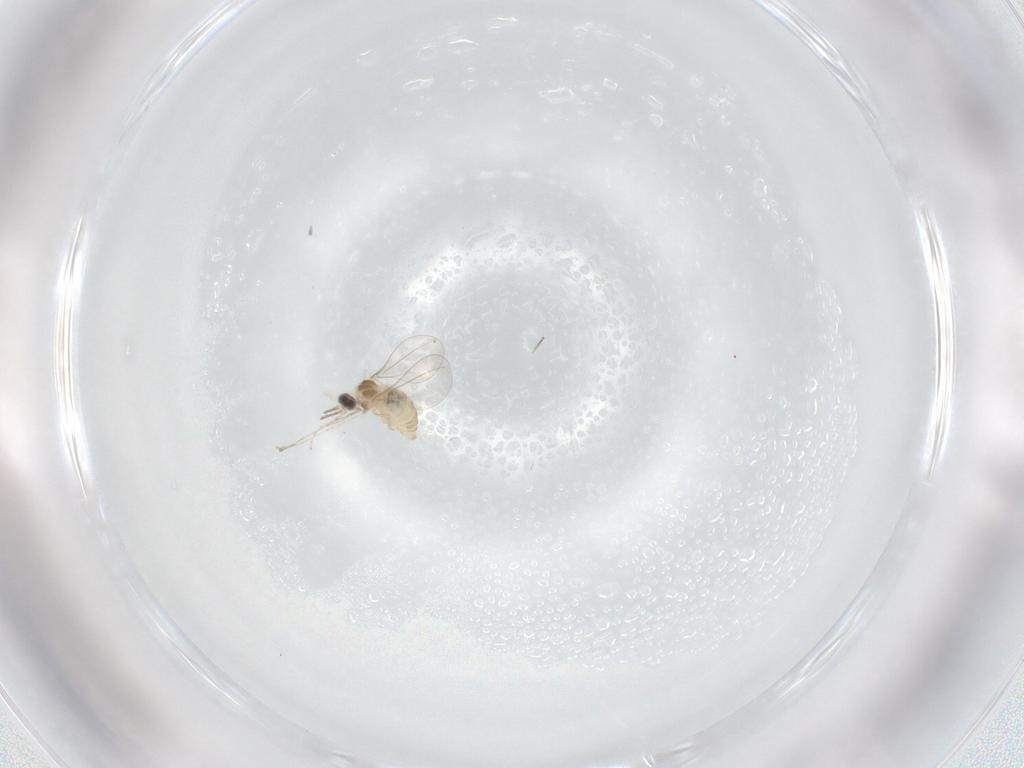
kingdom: Animalia
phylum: Arthropoda
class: Insecta
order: Diptera
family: Cecidomyiidae
